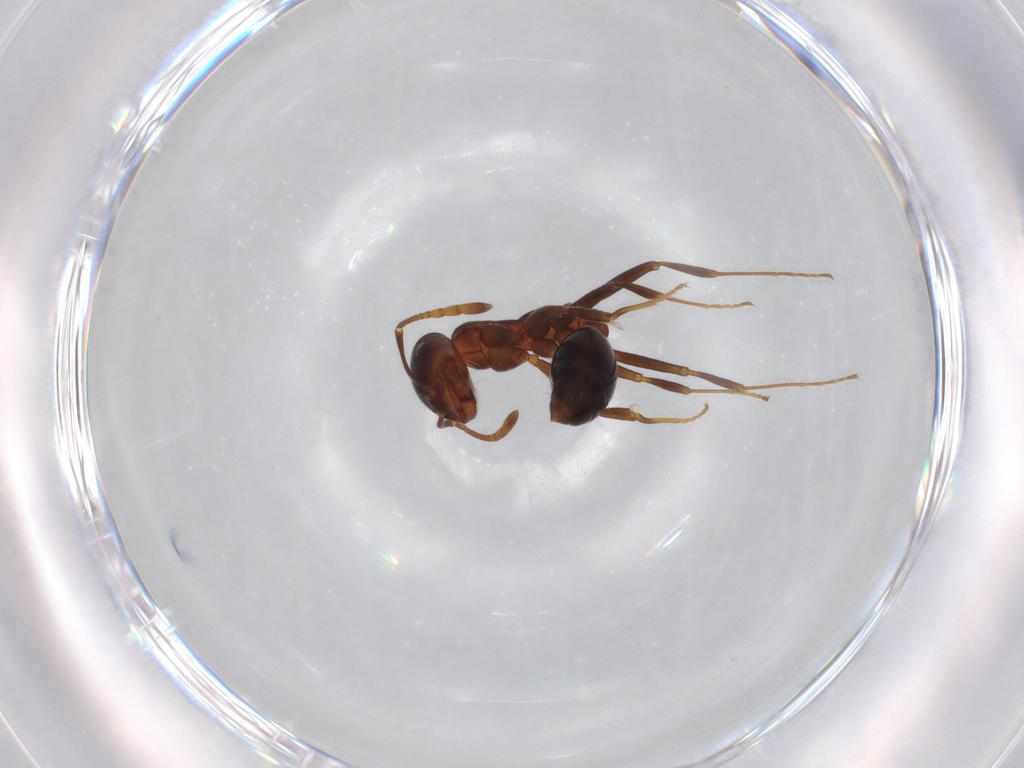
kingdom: Animalia
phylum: Arthropoda
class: Insecta
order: Hymenoptera
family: Formicidae
